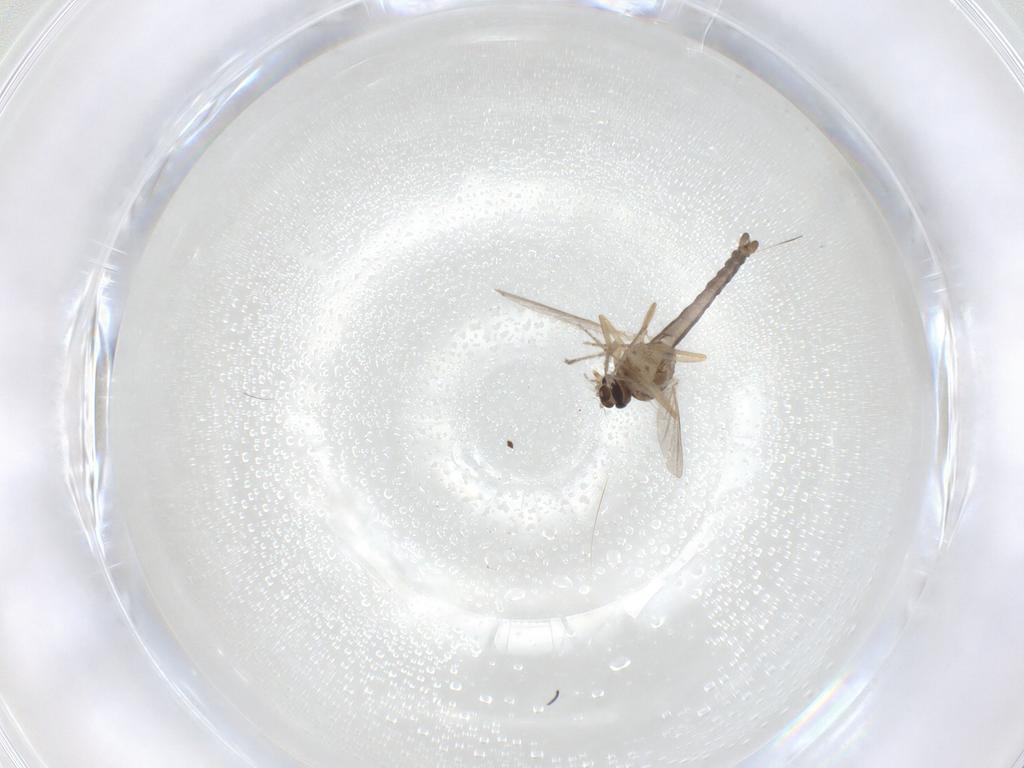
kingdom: Animalia
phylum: Arthropoda
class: Insecta
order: Diptera
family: Ceratopogonidae
